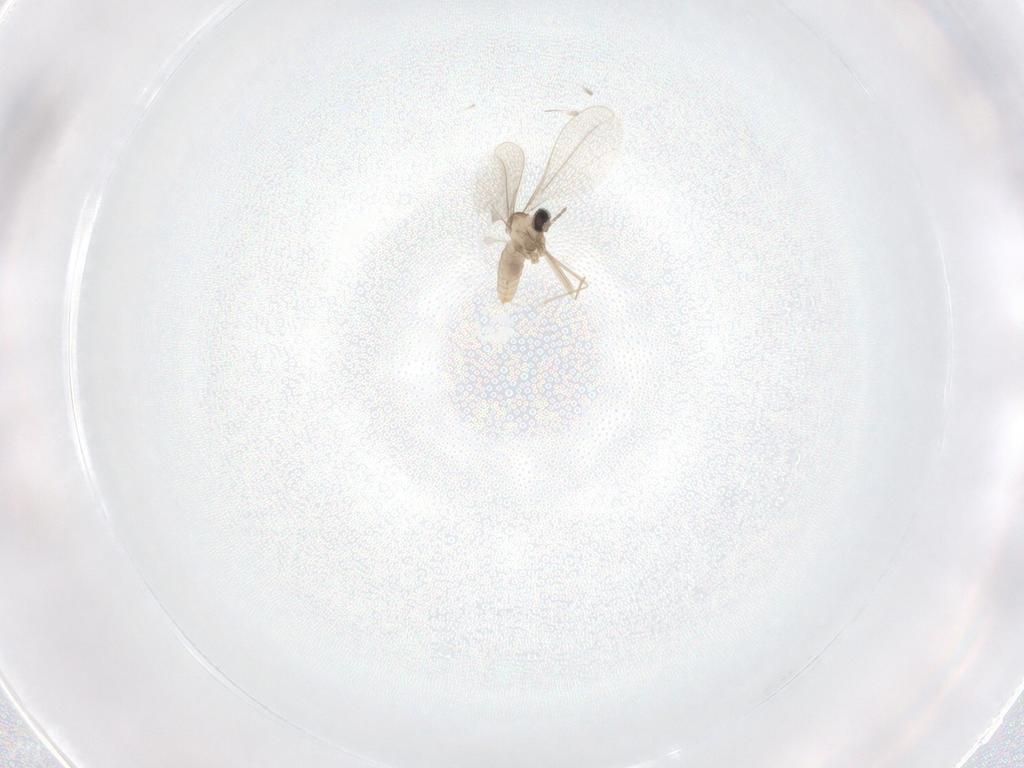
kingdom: Animalia
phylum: Arthropoda
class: Insecta
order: Diptera
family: Cecidomyiidae
